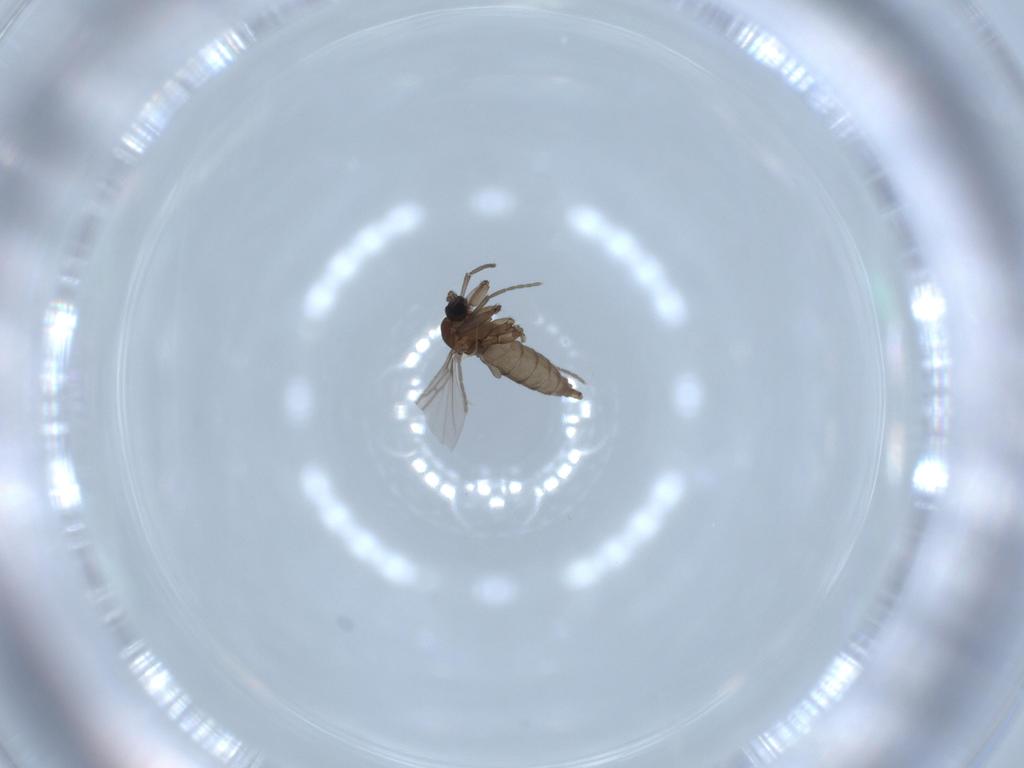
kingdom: Animalia
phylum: Arthropoda
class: Insecta
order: Diptera
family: Sciaridae
